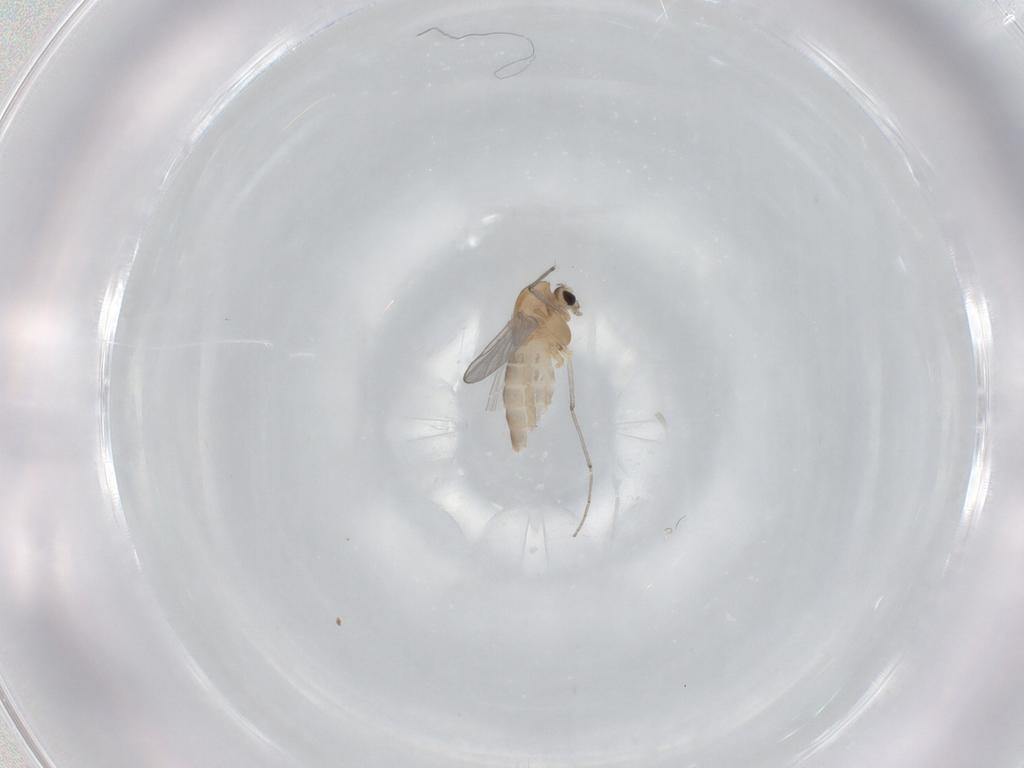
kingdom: Animalia
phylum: Arthropoda
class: Insecta
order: Diptera
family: Chironomidae
